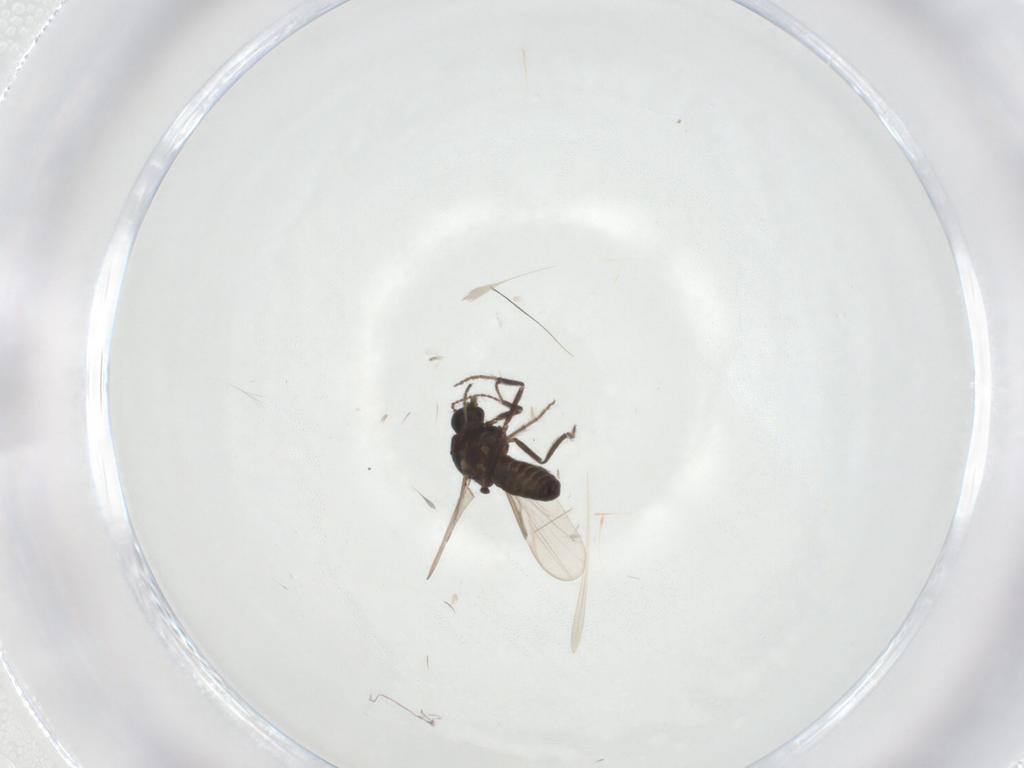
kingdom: Animalia
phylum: Arthropoda
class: Insecta
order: Diptera
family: Ceratopogonidae
